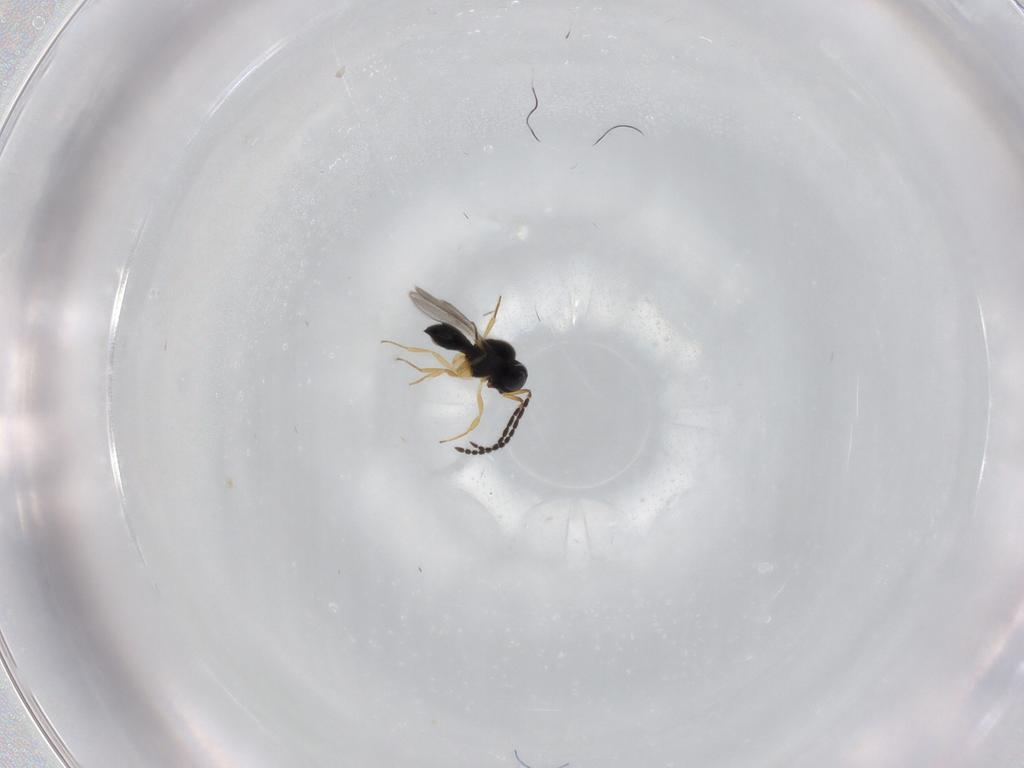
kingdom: Animalia
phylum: Arthropoda
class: Insecta
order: Hymenoptera
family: Scelionidae
